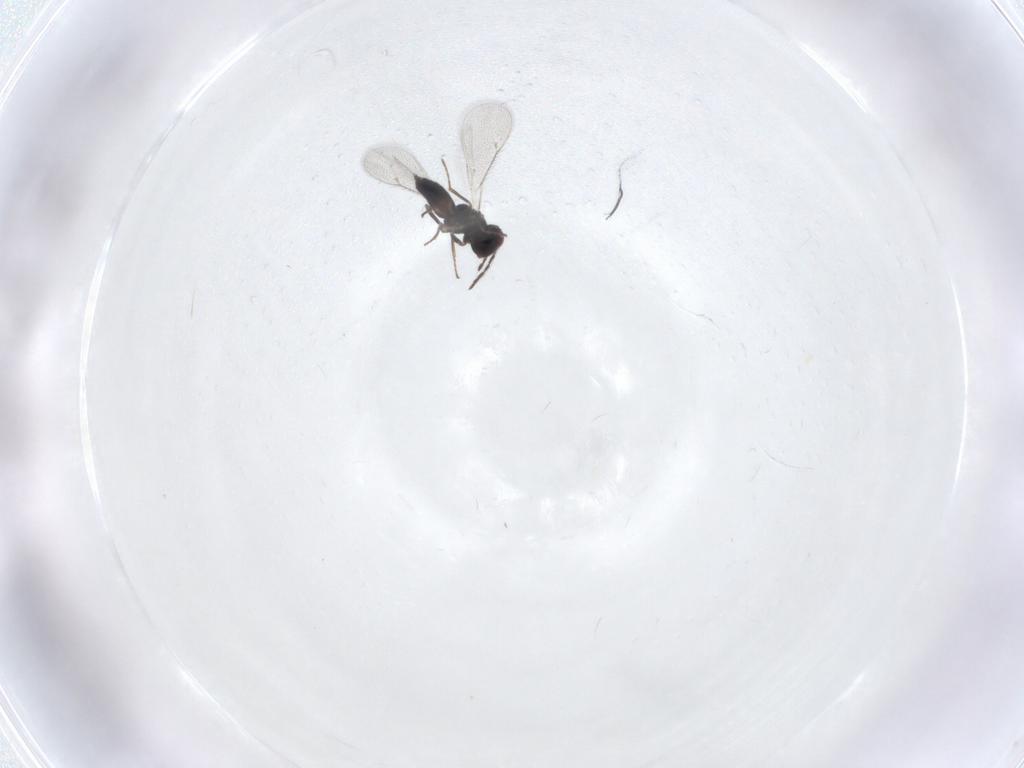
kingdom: Animalia
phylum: Arthropoda
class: Insecta
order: Hymenoptera
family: Eulophidae
